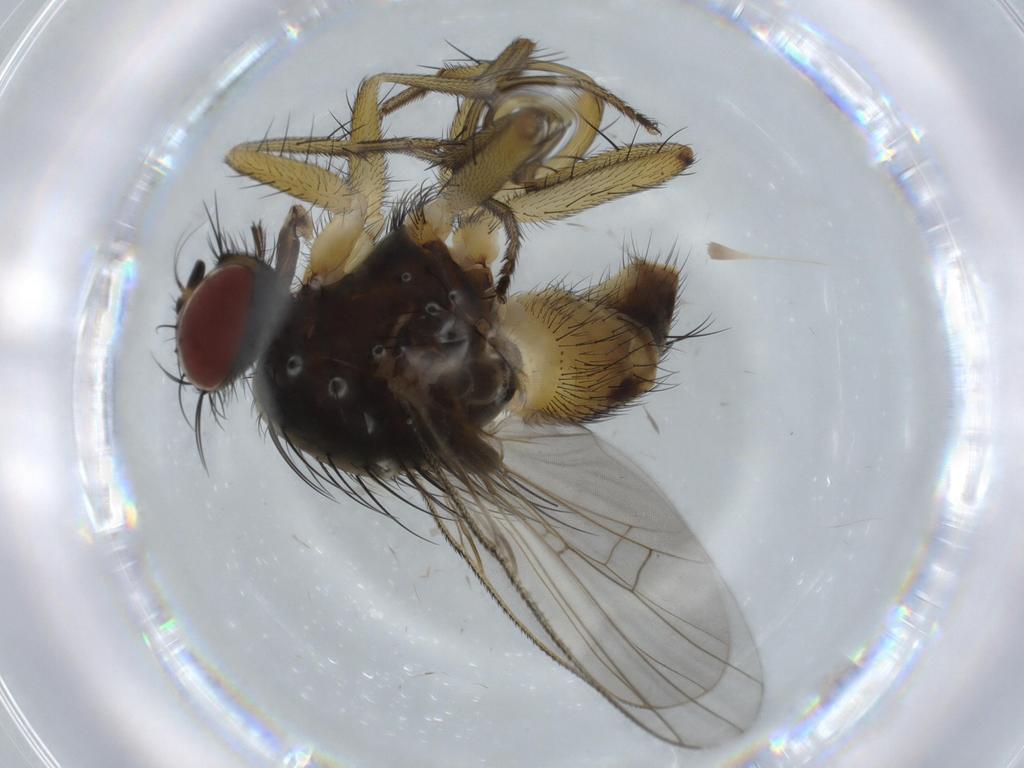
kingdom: Animalia
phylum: Arthropoda
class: Insecta
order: Diptera
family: Muscidae
